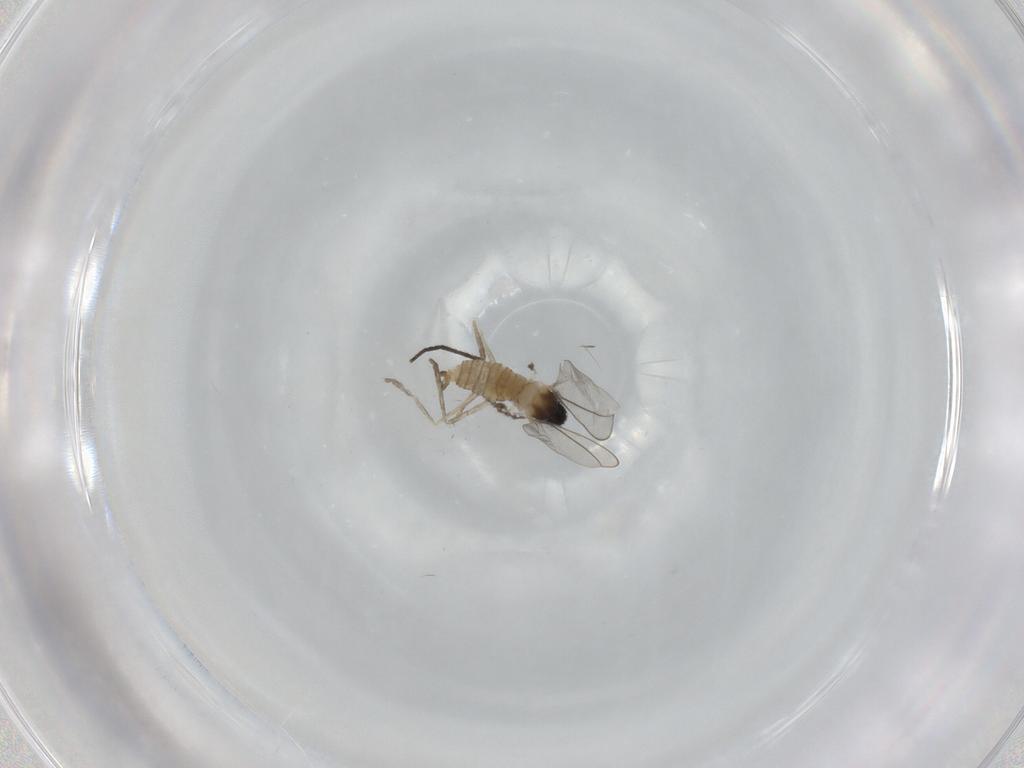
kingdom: Animalia
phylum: Arthropoda
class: Insecta
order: Diptera
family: Cecidomyiidae
